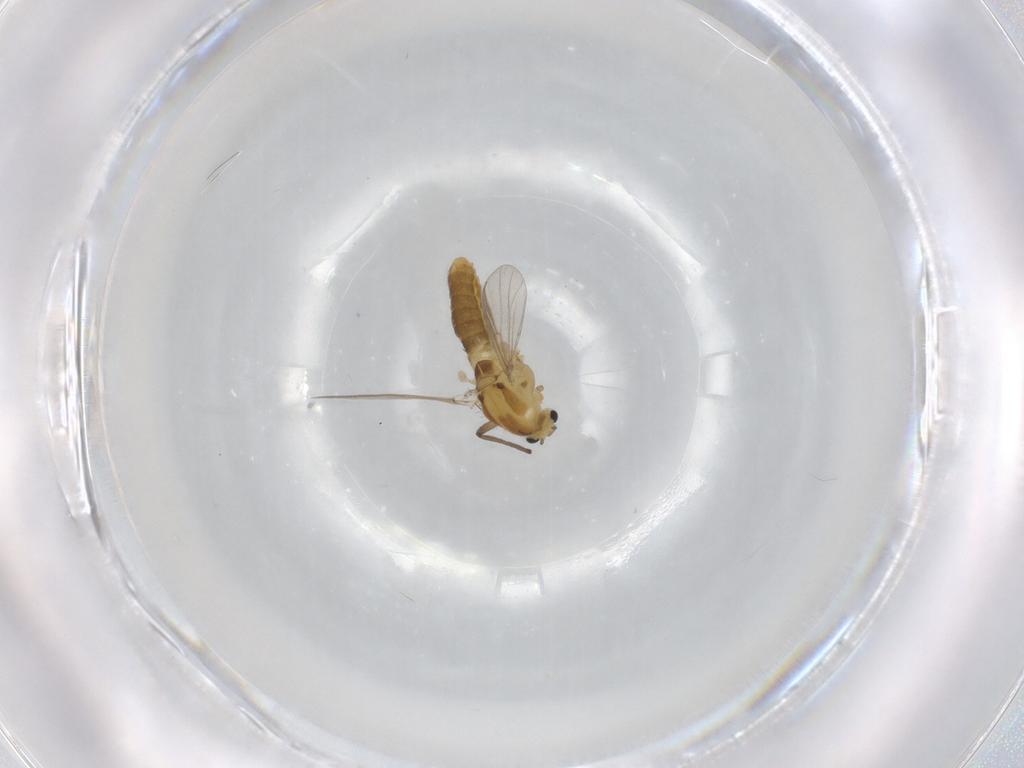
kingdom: Animalia
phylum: Arthropoda
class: Insecta
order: Diptera
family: Chironomidae
